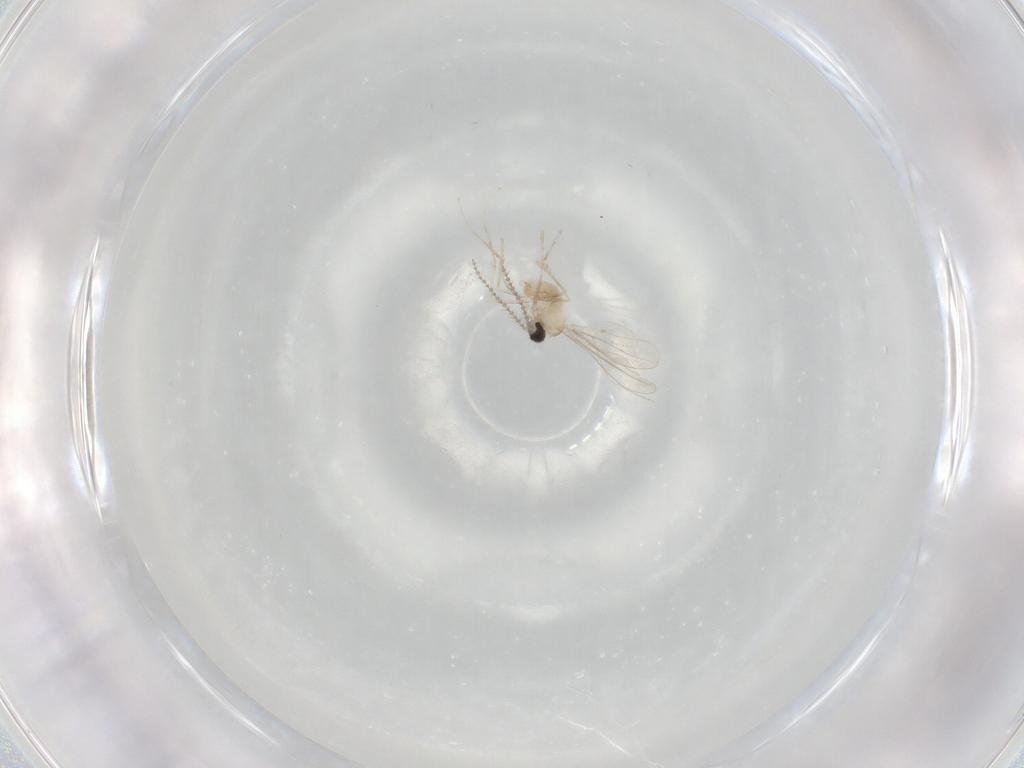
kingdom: Animalia
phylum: Arthropoda
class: Insecta
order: Diptera
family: Cecidomyiidae
